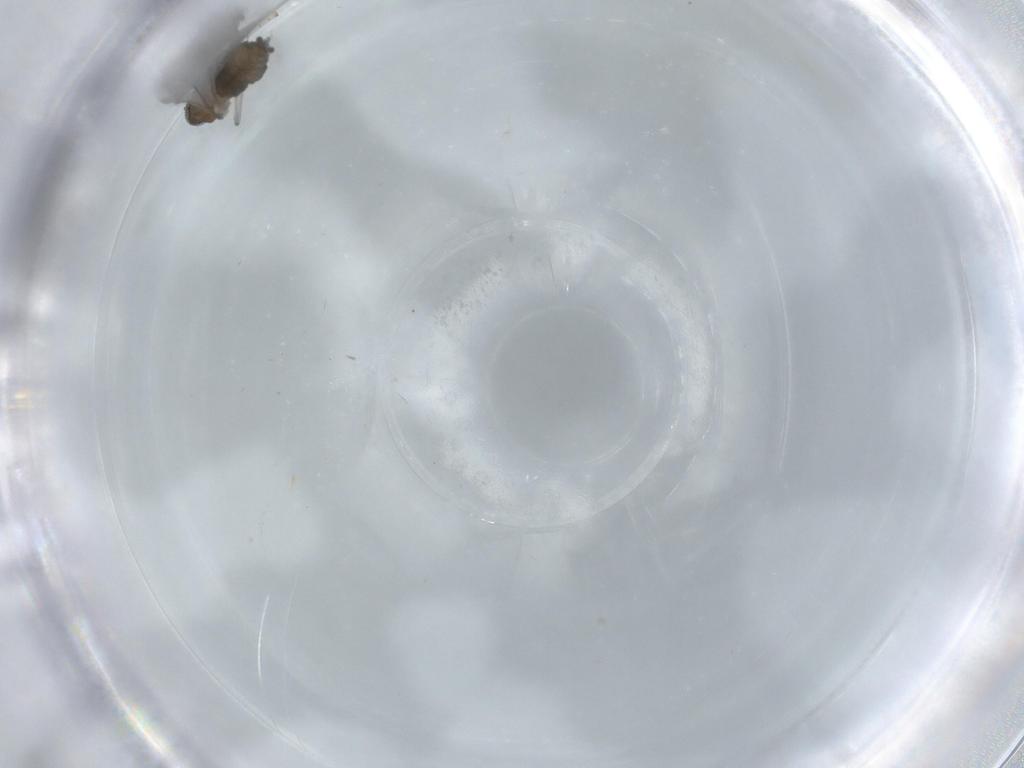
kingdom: Animalia
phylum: Arthropoda
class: Insecta
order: Diptera
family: Cecidomyiidae
